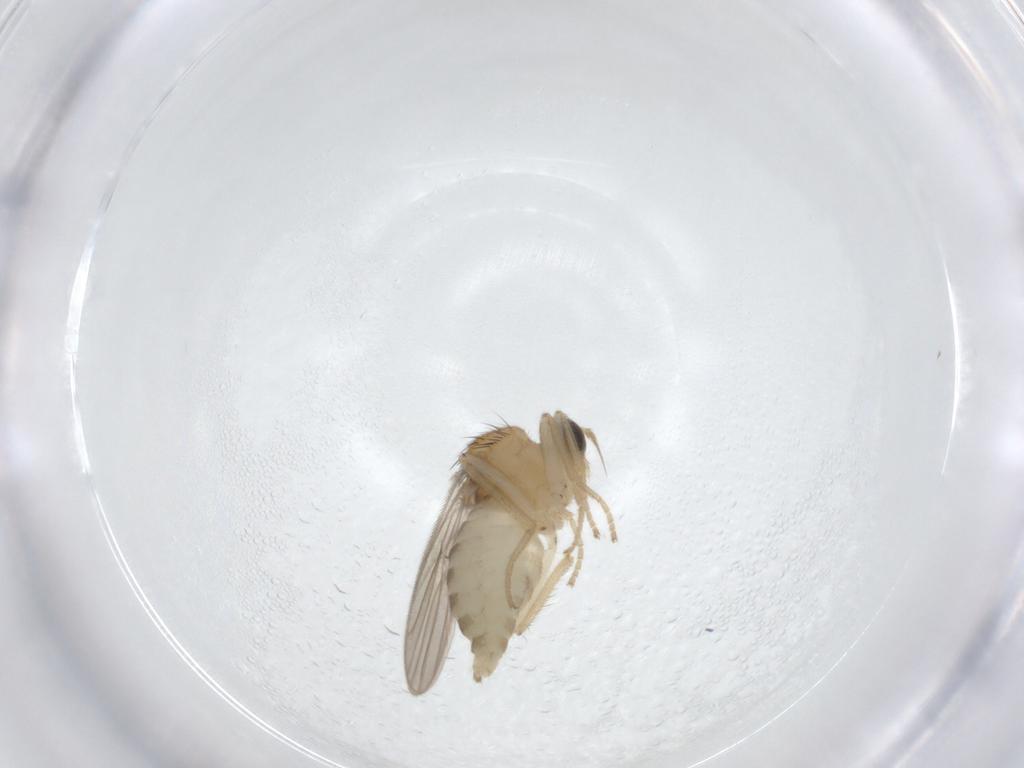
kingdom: Animalia
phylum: Arthropoda
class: Insecta
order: Diptera
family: Hybotidae
